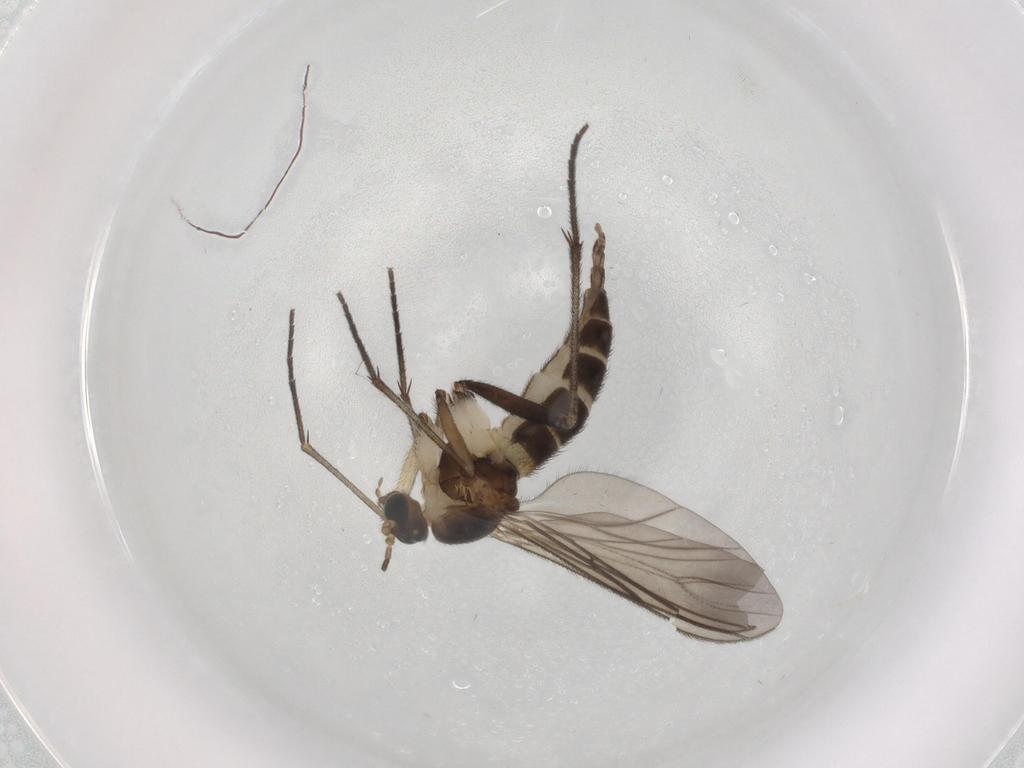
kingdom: Animalia
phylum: Arthropoda
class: Insecta
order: Diptera
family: Sciaridae
